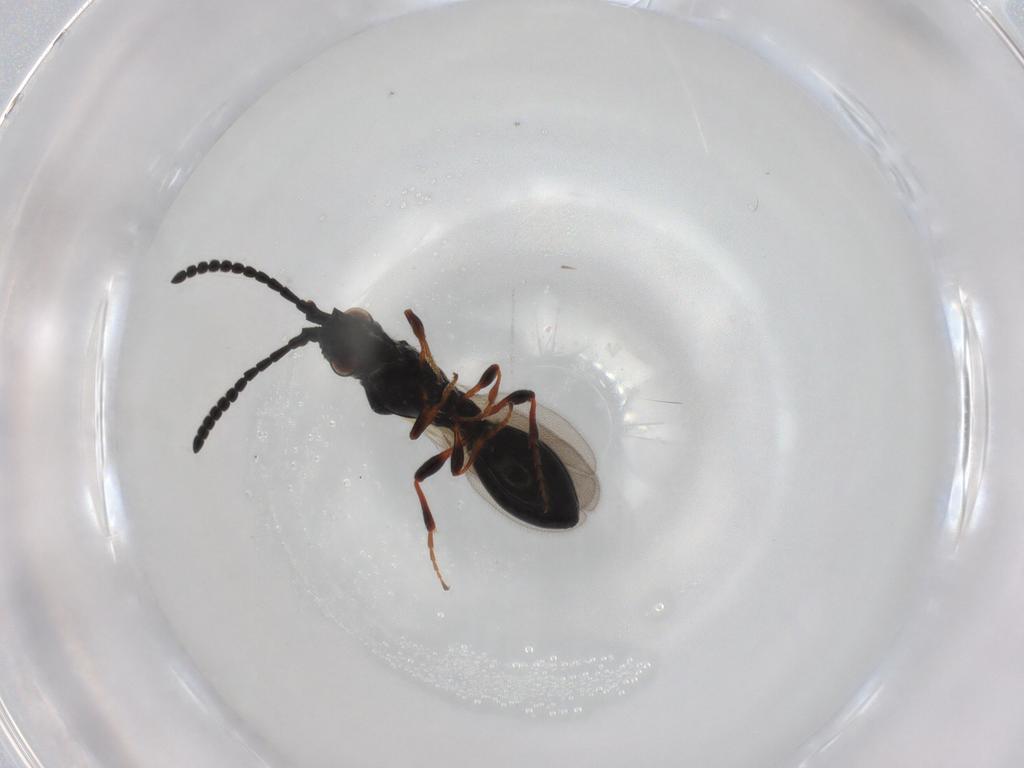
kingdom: Animalia
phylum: Arthropoda
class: Insecta
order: Hymenoptera
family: Diapriidae
